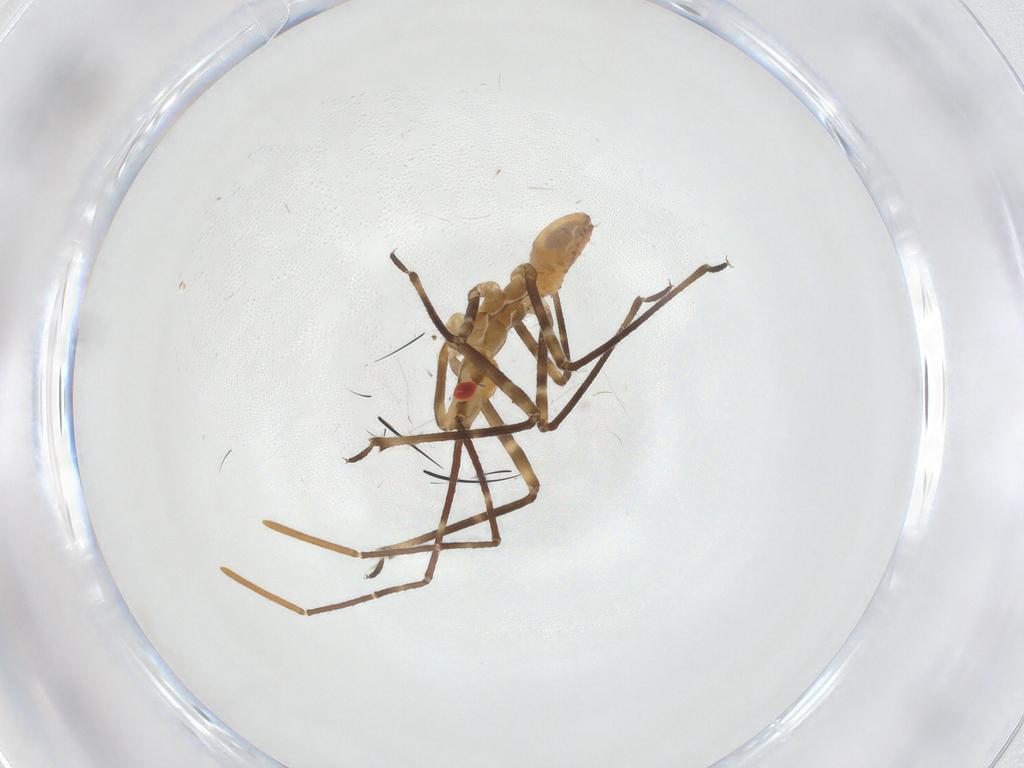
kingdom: Animalia
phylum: Arthropoda
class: Insecta
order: Hemiptera
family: Reduviidae
